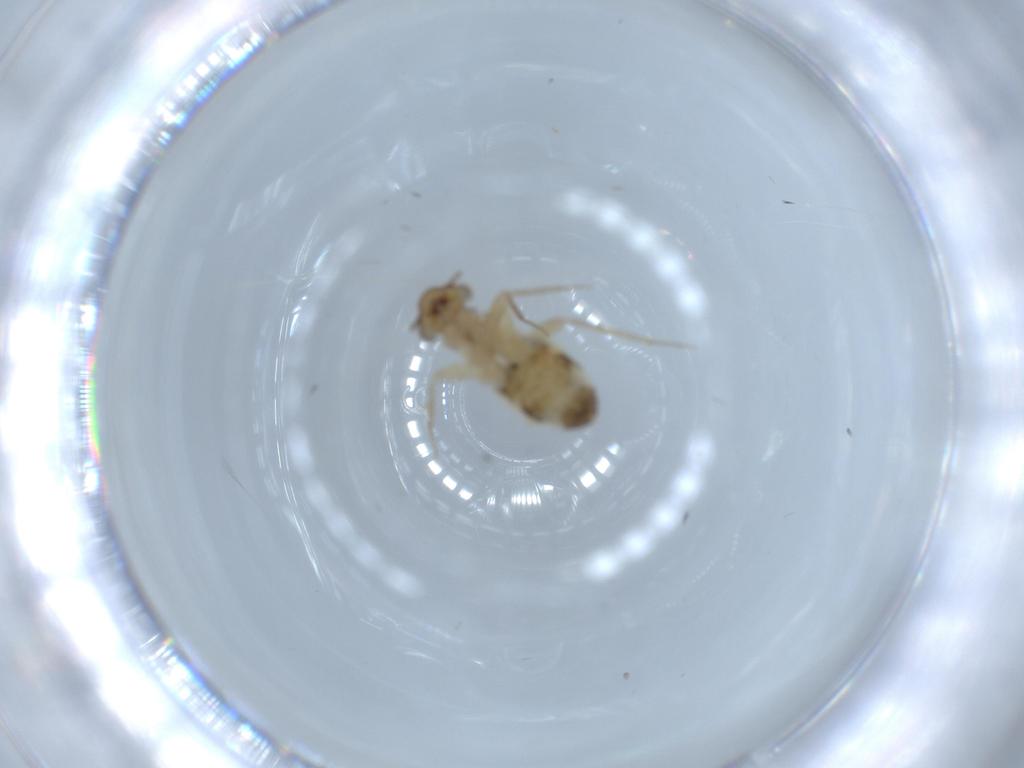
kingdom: Animalia
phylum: Arthropoda
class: Insecta
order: Psocodea
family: Lepidopsocidae
